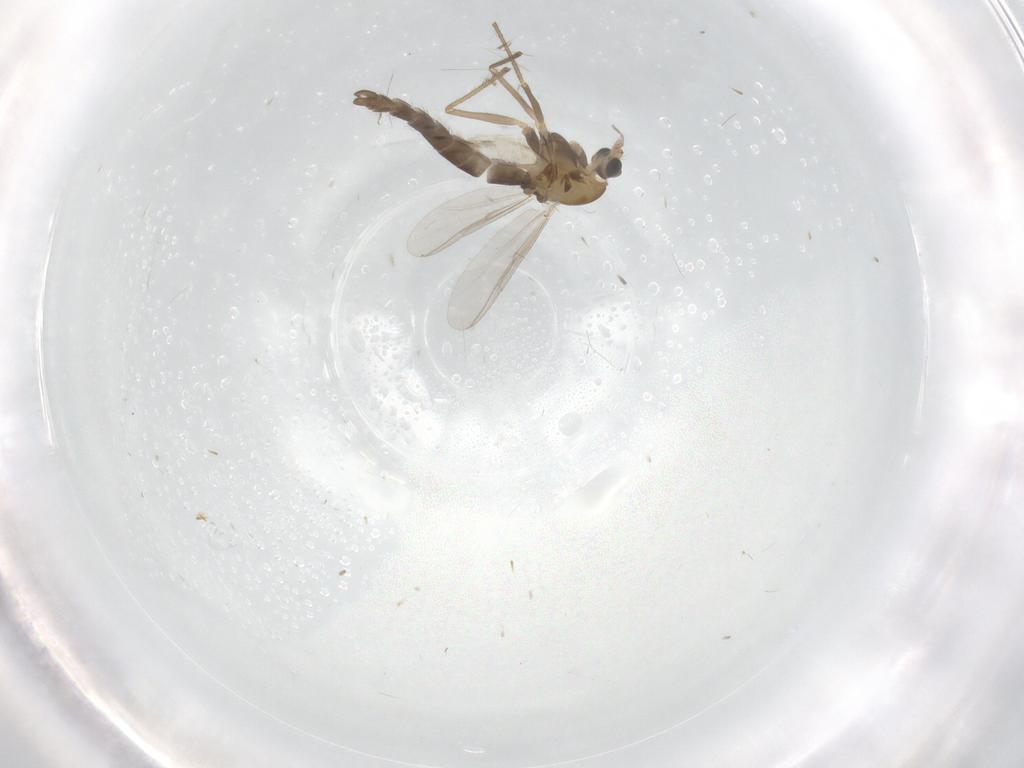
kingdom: Animalia
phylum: Arthropoda
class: Insecta
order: Diptera
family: Chironomidae
